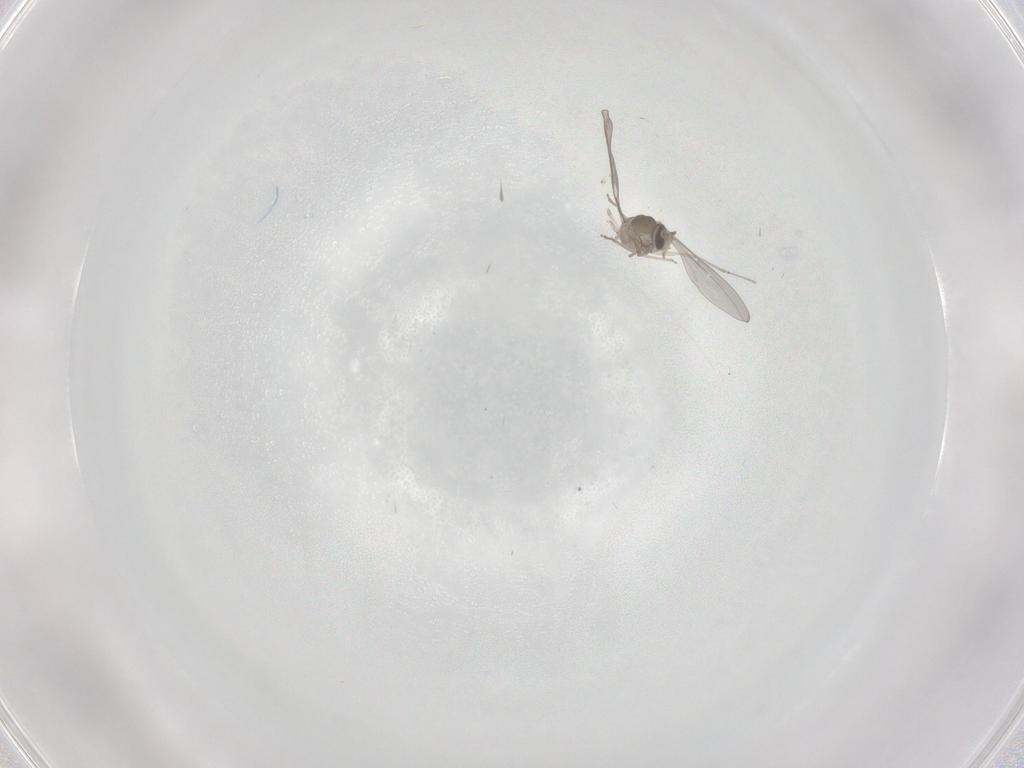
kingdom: Animalia
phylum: Arthropoda
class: Insecta
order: Diptera
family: Cecidomyiidae
